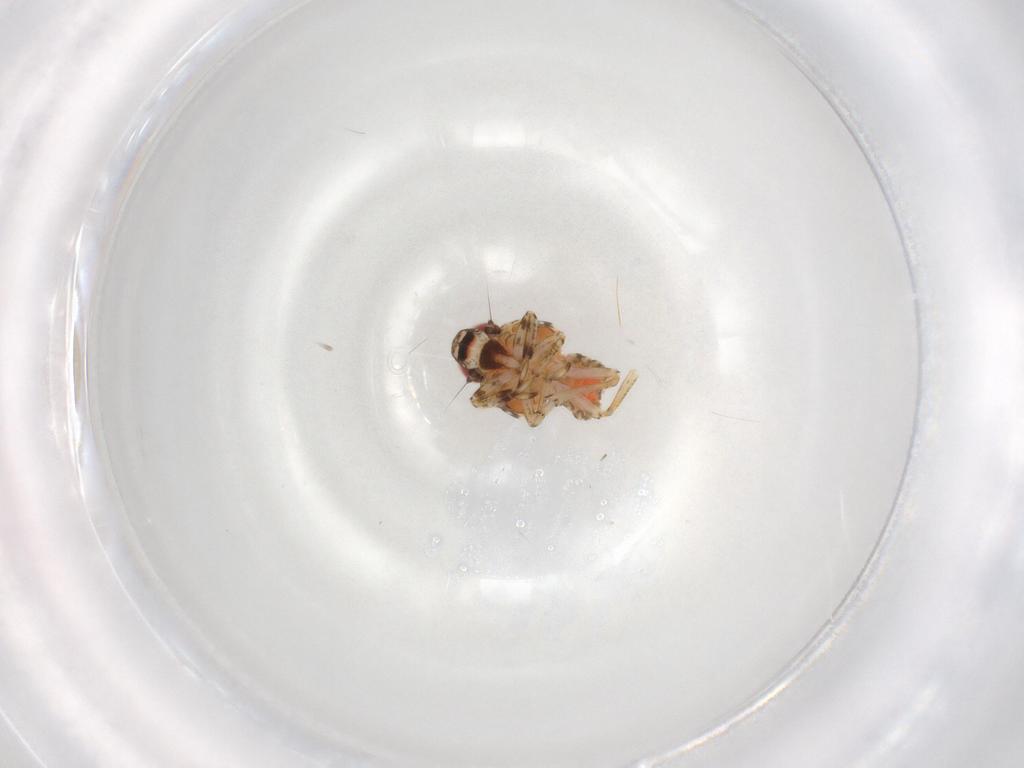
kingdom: Animalia
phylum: Arthropoda
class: Insecta
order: Hemiptera
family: Issidae
